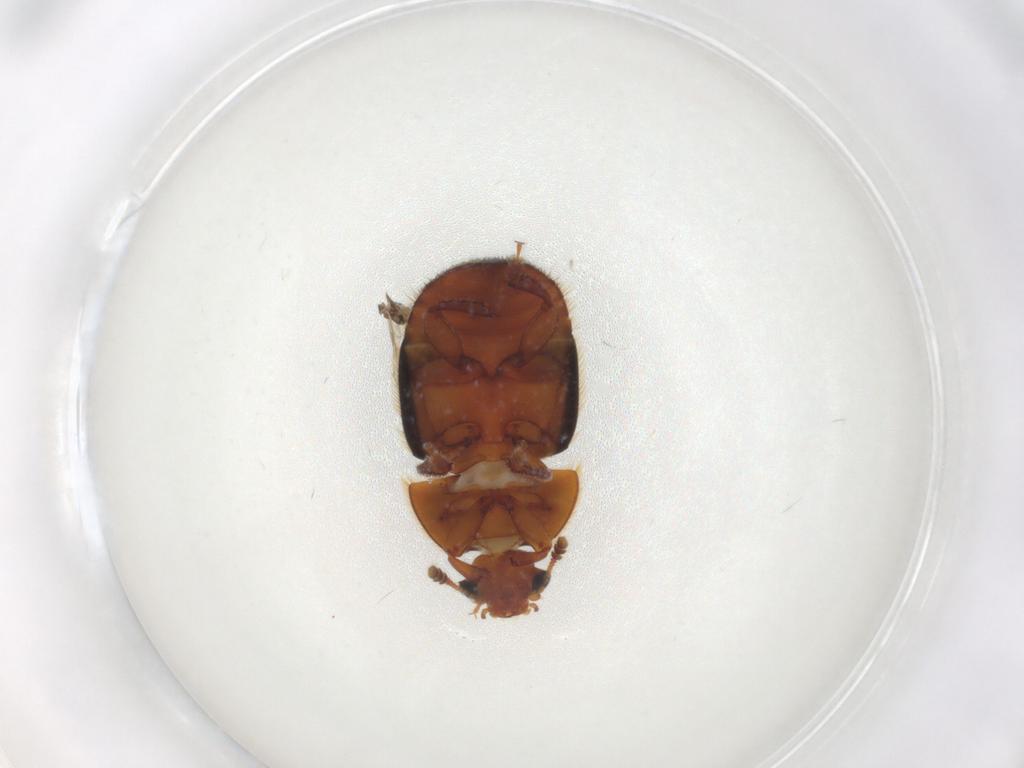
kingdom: Animalia
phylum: Arthropoda
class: Insecta
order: Coleoptera
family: Nitidulidae
